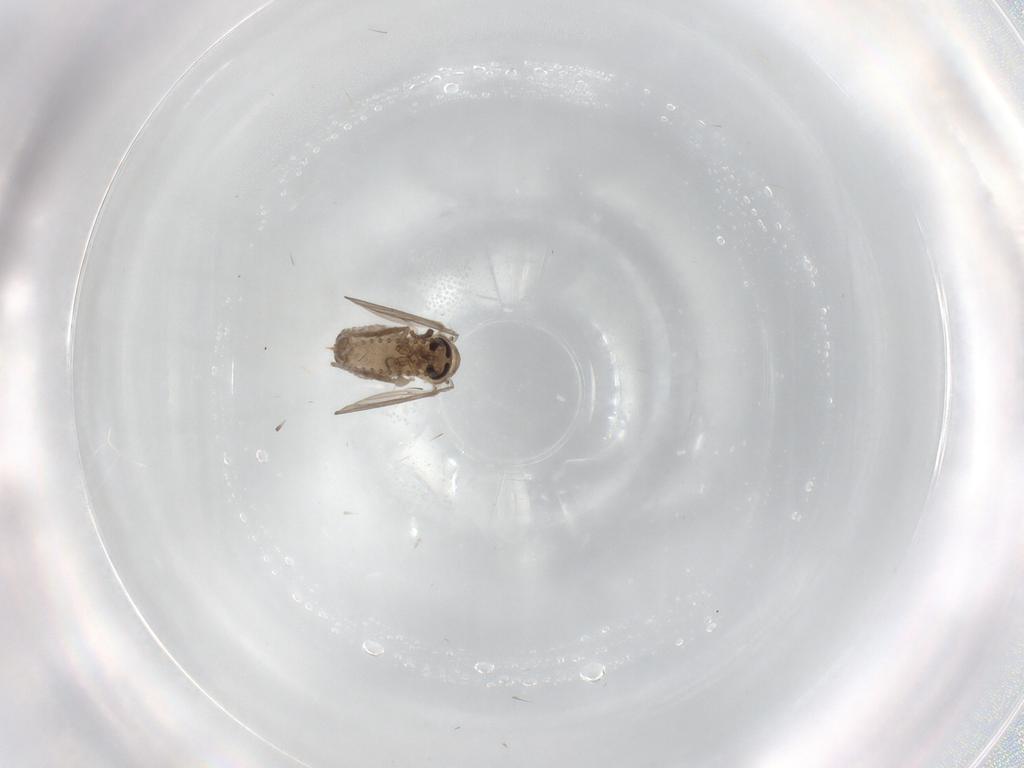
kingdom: Animalia
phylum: Arthropoda
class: Insecta
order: Diptera
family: Psychodidae
